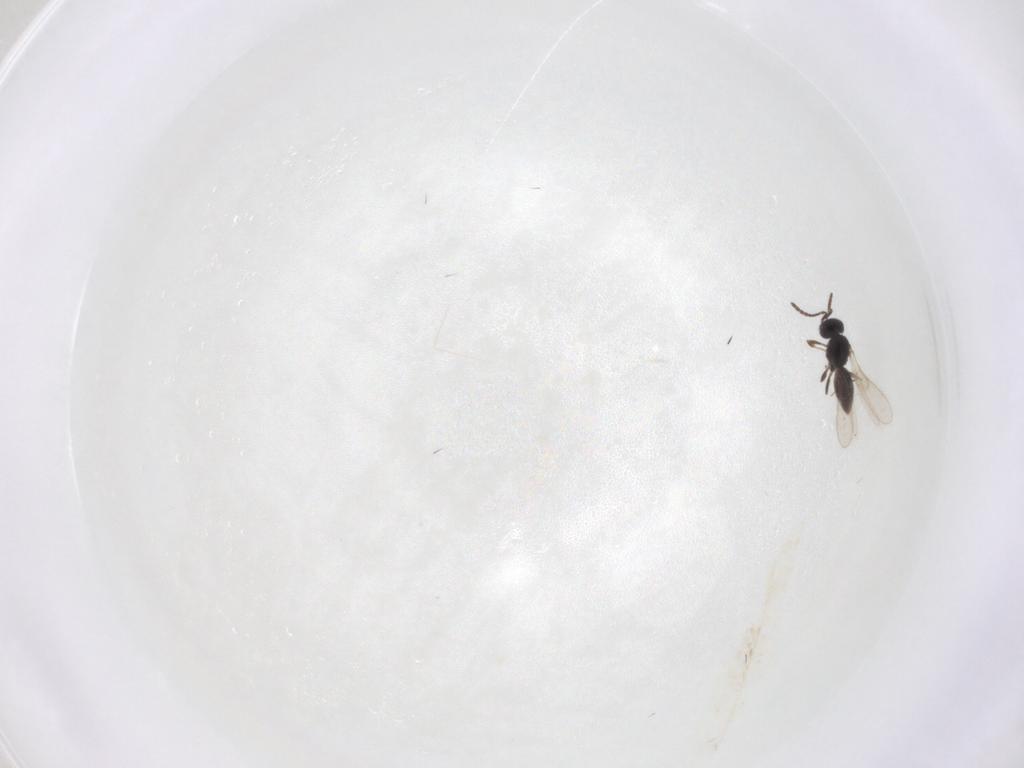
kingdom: Animalia
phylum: Arthropoda
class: Insecta
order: Hymenoptera
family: Scelionidae
